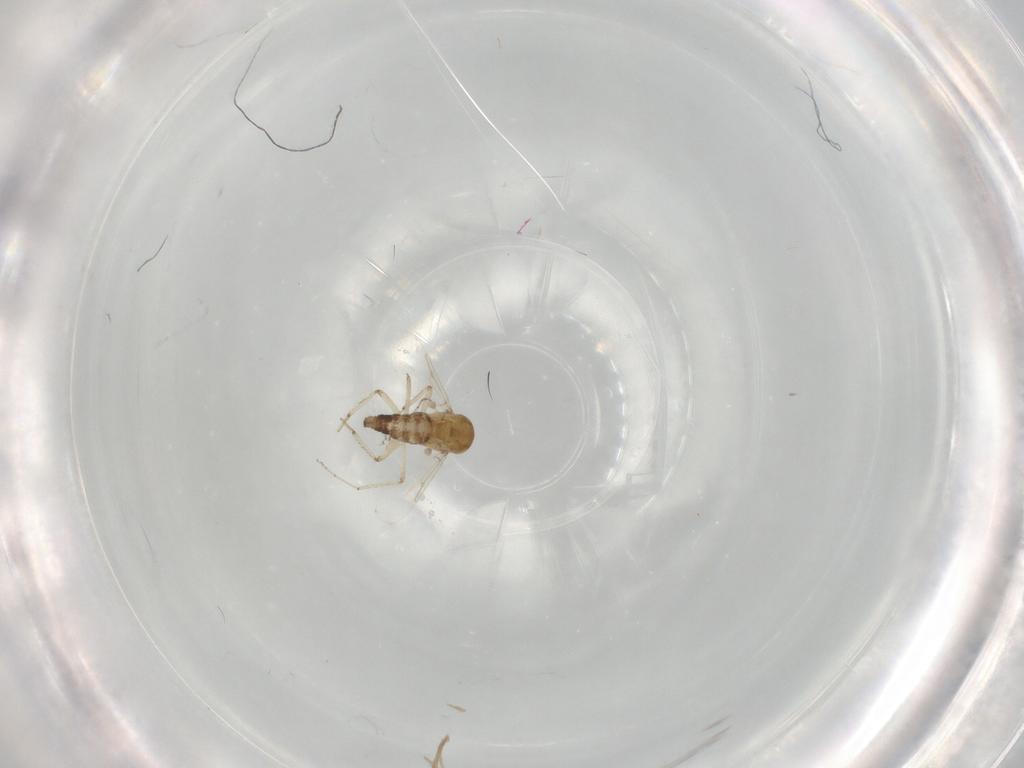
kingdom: Animalia
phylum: Arthropoda
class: Insecta
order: Diptera
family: Ceratopogonidae
